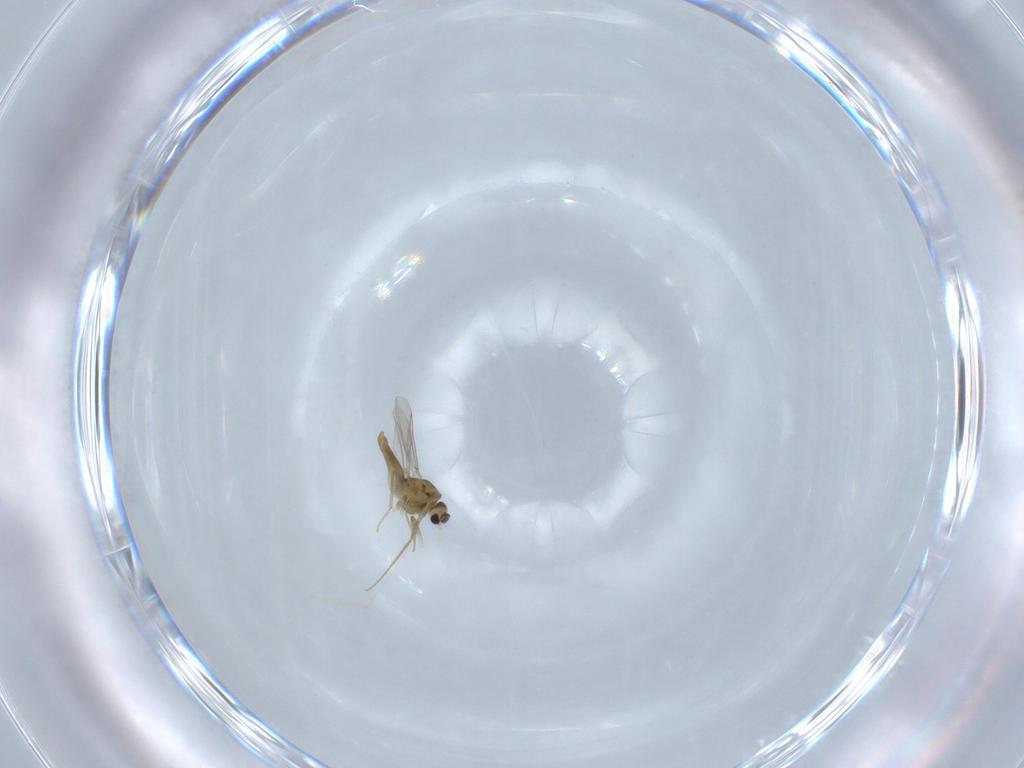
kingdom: Animalia
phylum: Arthropoda
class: Insecta
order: Diptera
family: Chironomidae
